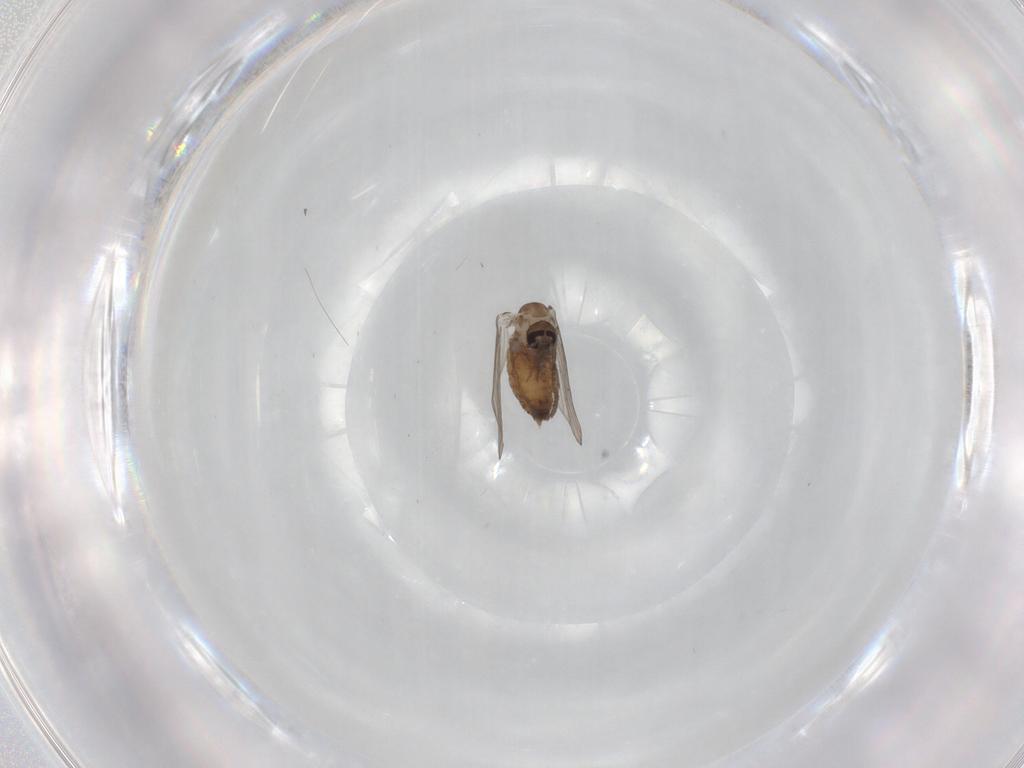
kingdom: Animalia
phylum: Arthropoda
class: Insecta
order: Diptera
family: Psychodidae
